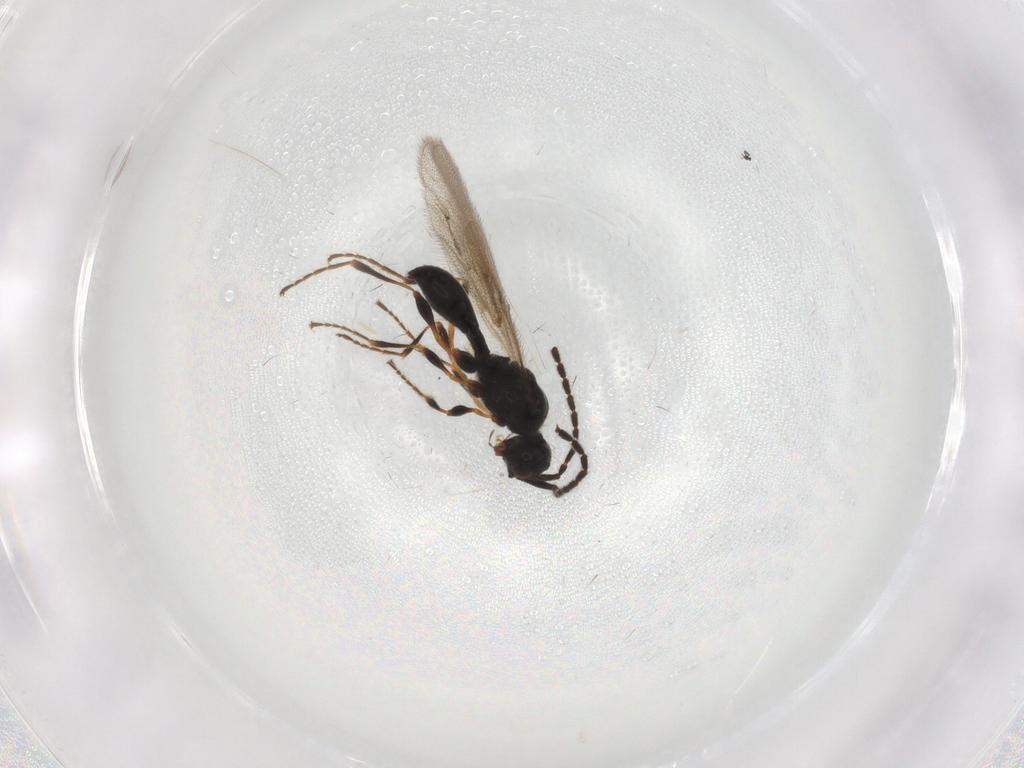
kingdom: Animalia
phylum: Arthropoda
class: Insecta
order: Hymenoptera
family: Diapriidae
